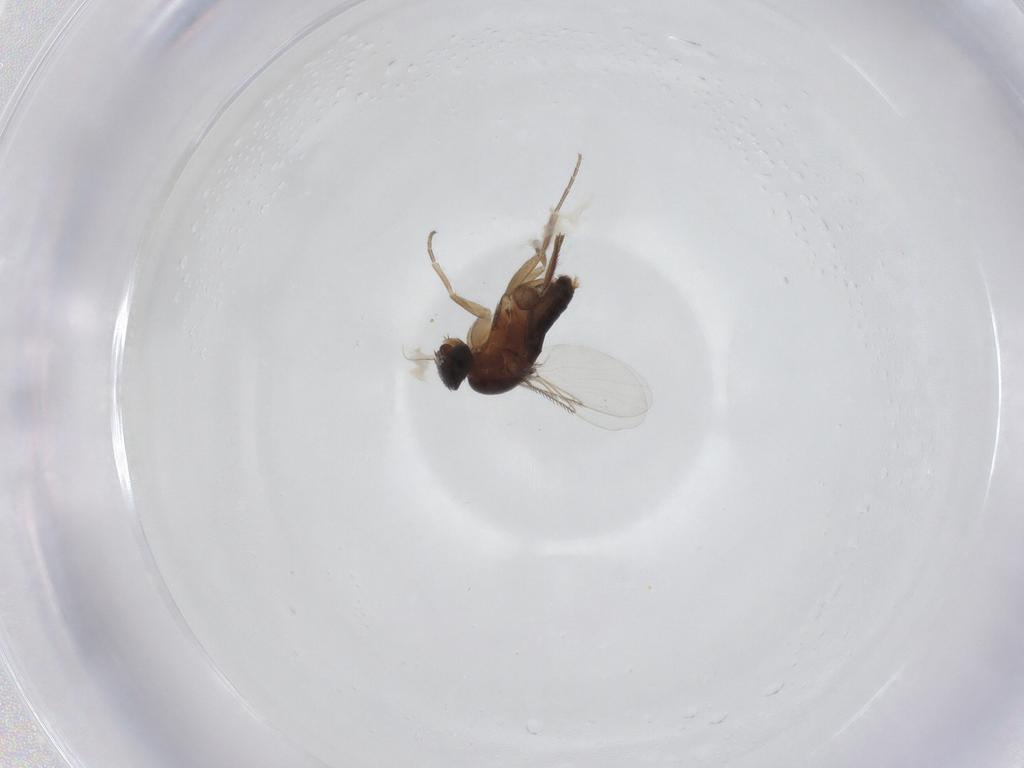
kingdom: Animalia
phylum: Arthropoda
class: Insecta
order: Diptera
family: Phoridae
